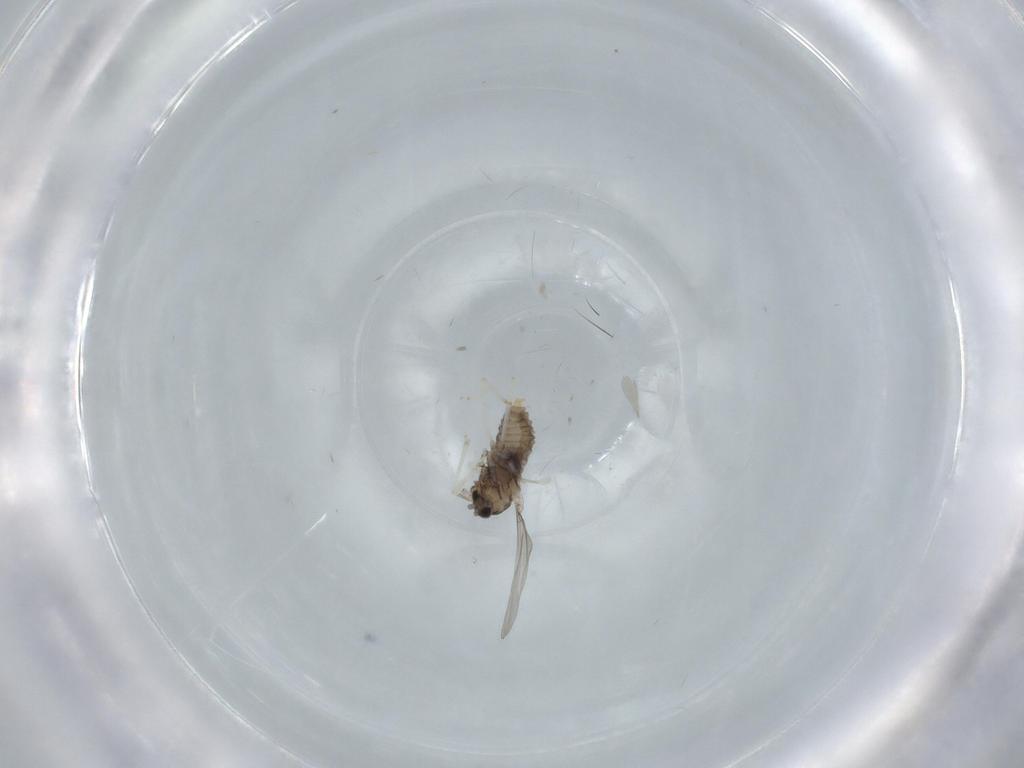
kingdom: Animalia
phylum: Arthropoda
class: Insecta
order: Diptera
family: Cecidomyiidae
